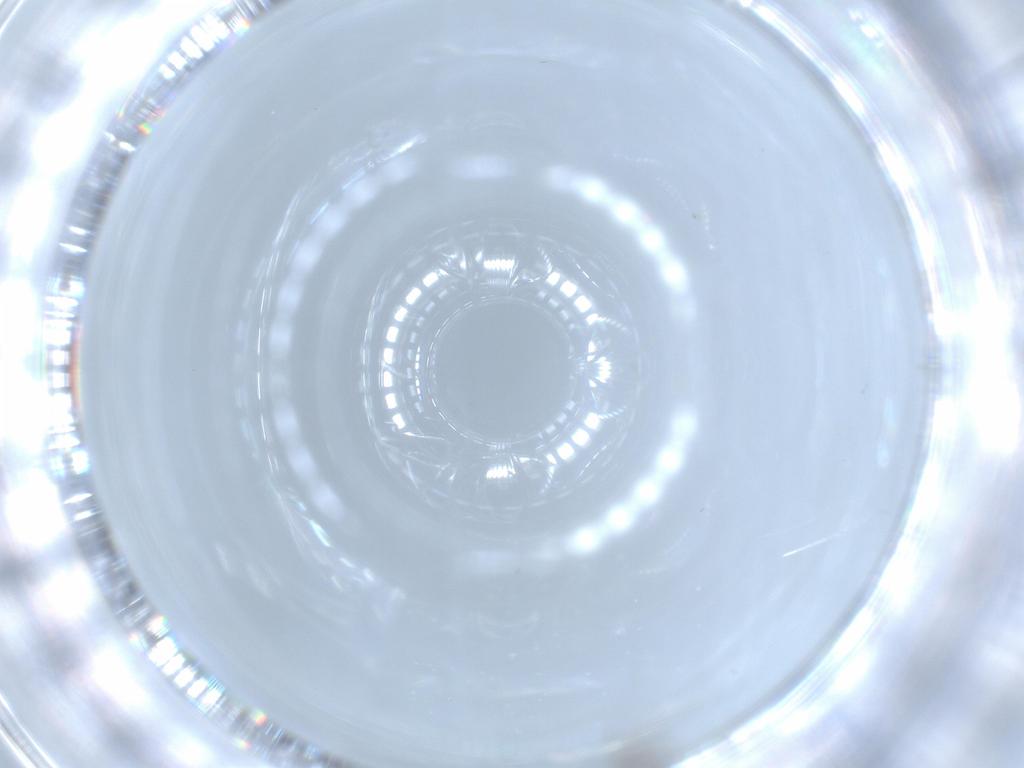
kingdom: Animalia
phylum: Arthropoda
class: Insecta
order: Diptera
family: Phoridae
